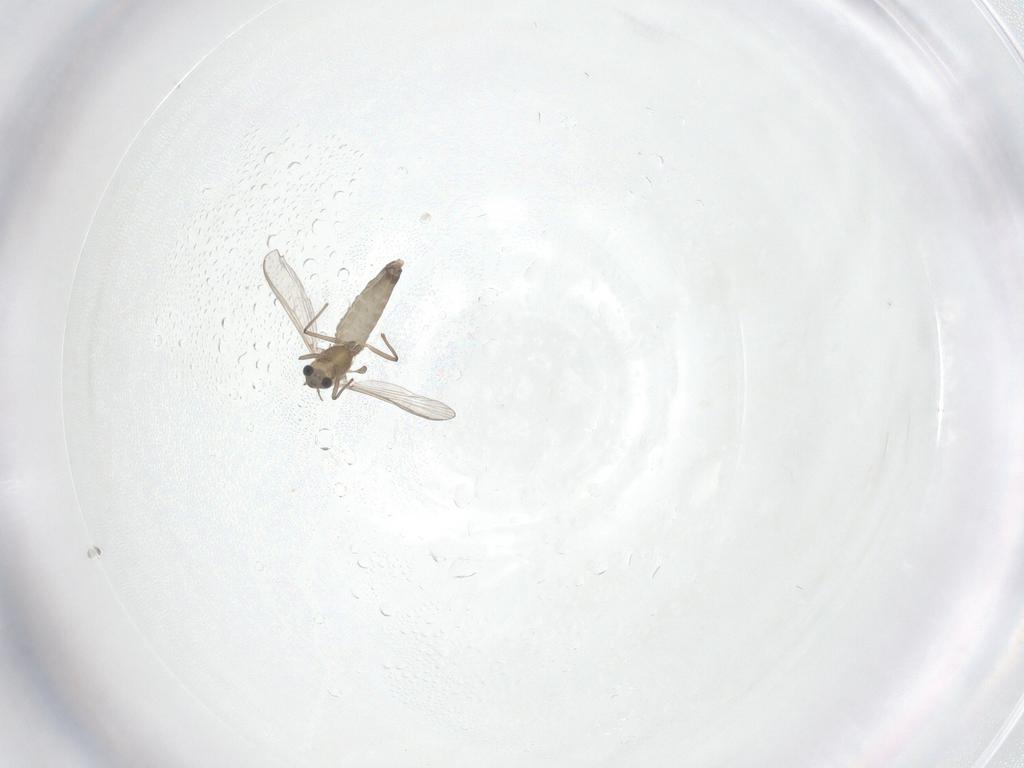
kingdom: Animalia
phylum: Arthropoda
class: Insecta
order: Diptera
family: Chironomidae
